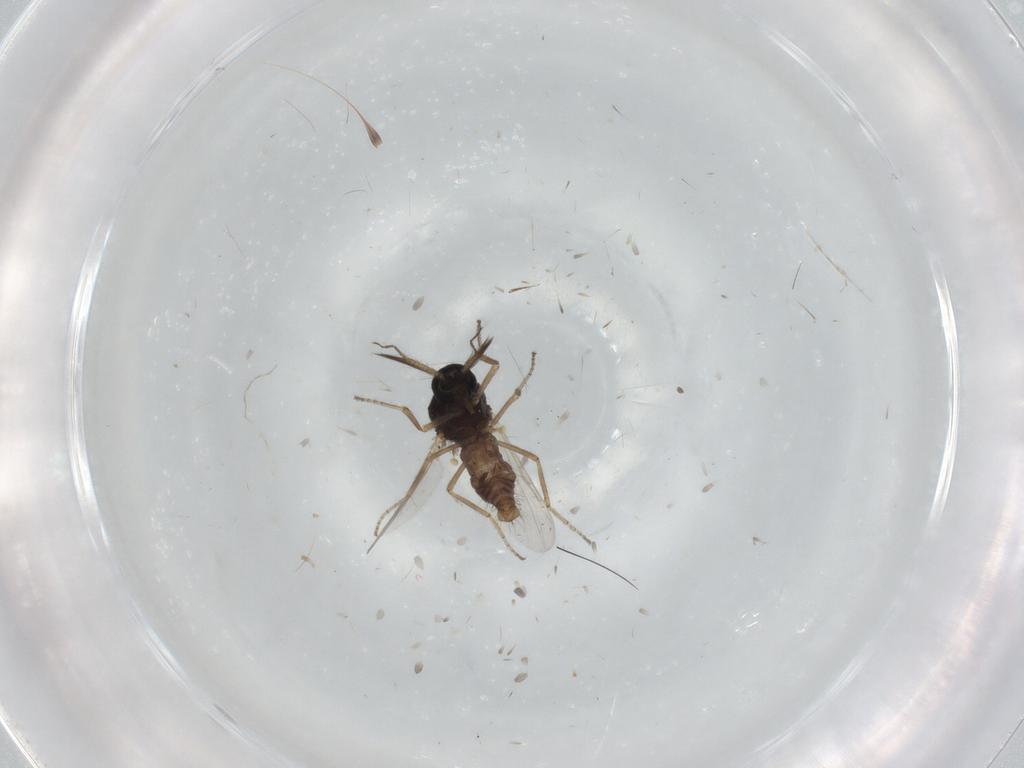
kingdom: Animalia
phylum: Arthropoda
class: Insecta
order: Diptera
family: Ceratopogonidae
